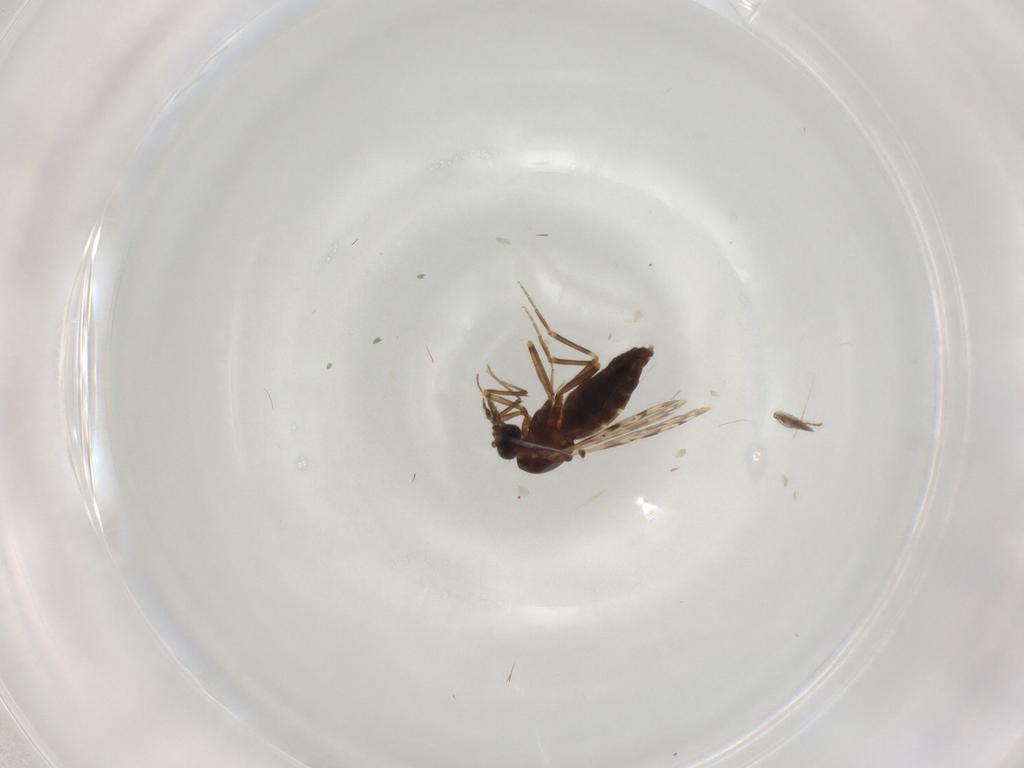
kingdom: Animalia
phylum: Arthropoda
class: Insecta
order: Diptera
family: Ceratopogonidae
